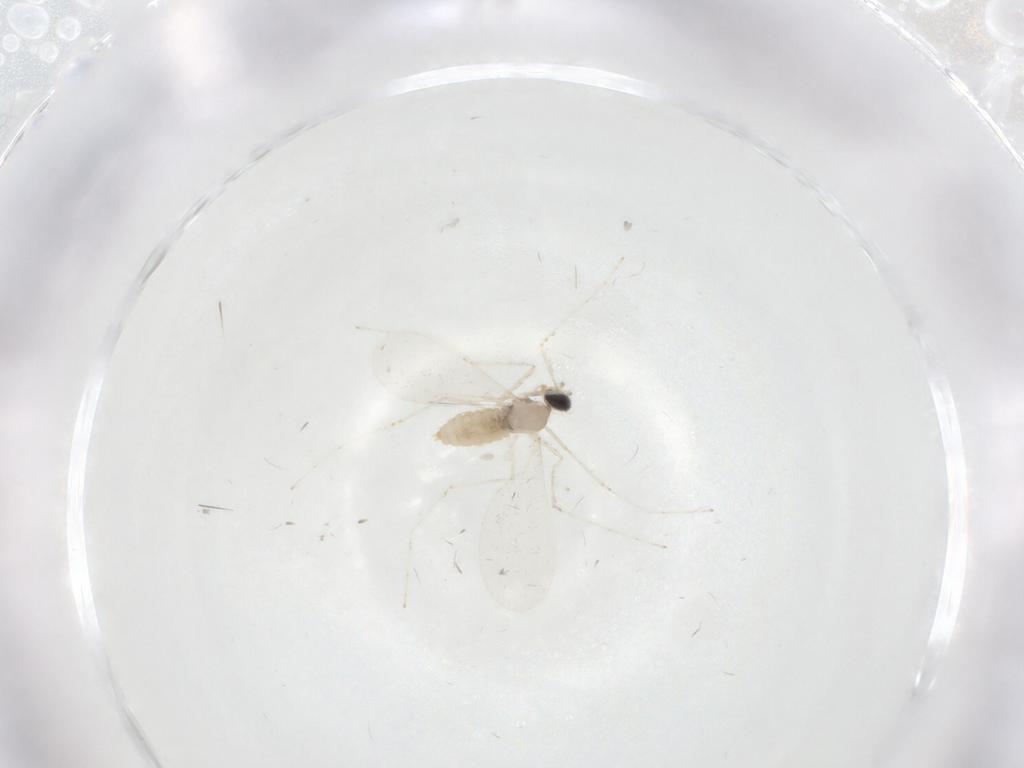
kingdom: Animalia
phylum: Arthropoda
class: Insecta
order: Diptera
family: Cecidomyiidae
